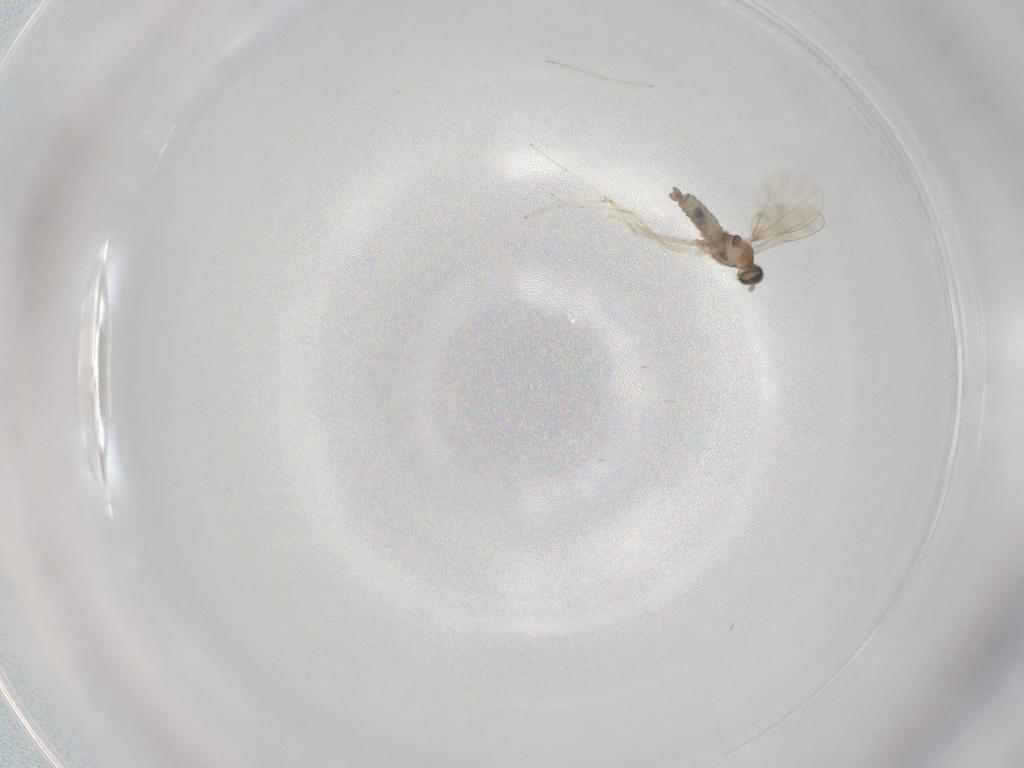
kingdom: Animalia
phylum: Arthropoda
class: Insecta
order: Diptera
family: Cecidomyiidae
